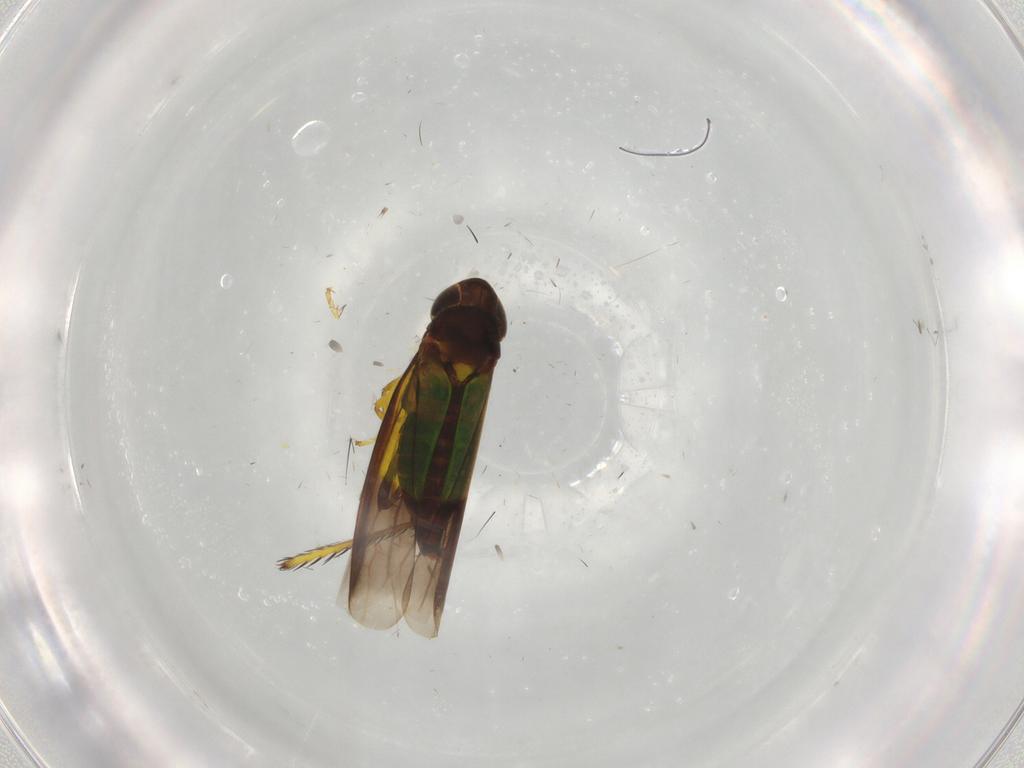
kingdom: Animalia
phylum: Arthropoda
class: Insecta
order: Hemiptera
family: Cicadellidae
